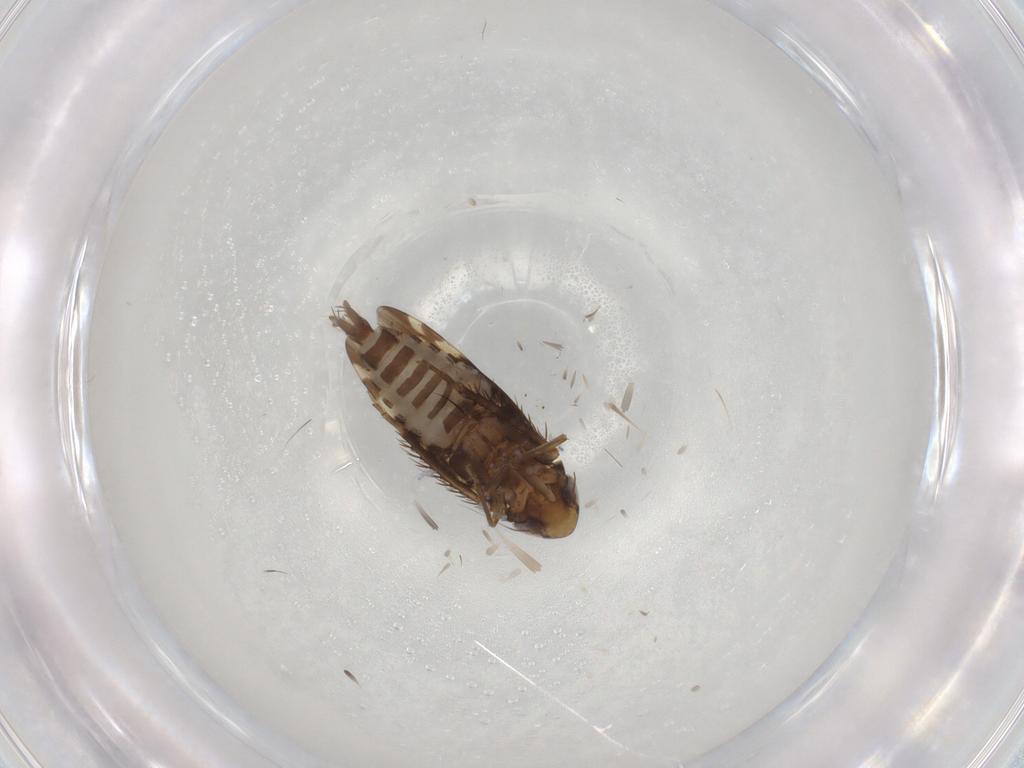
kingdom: Animalia
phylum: Arthropoda
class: Insecta
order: Hemiptera
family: Cicadellidae
